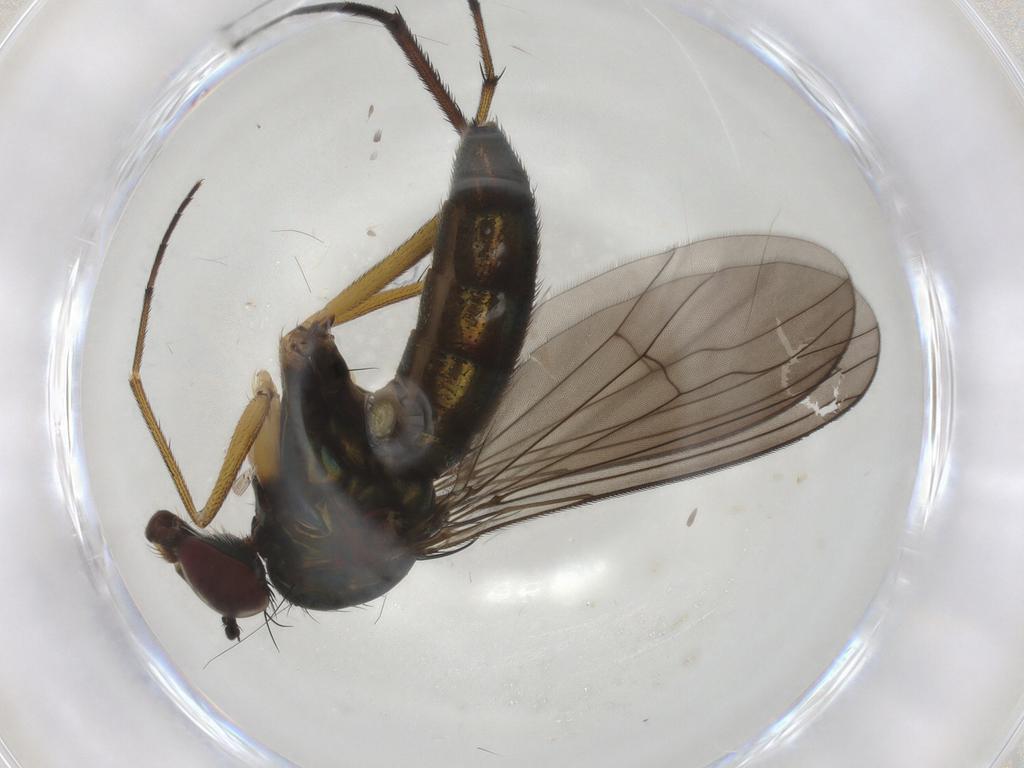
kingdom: Animalia
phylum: Arthropoda
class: Insecta
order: Diptera
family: Dolichopodidae
